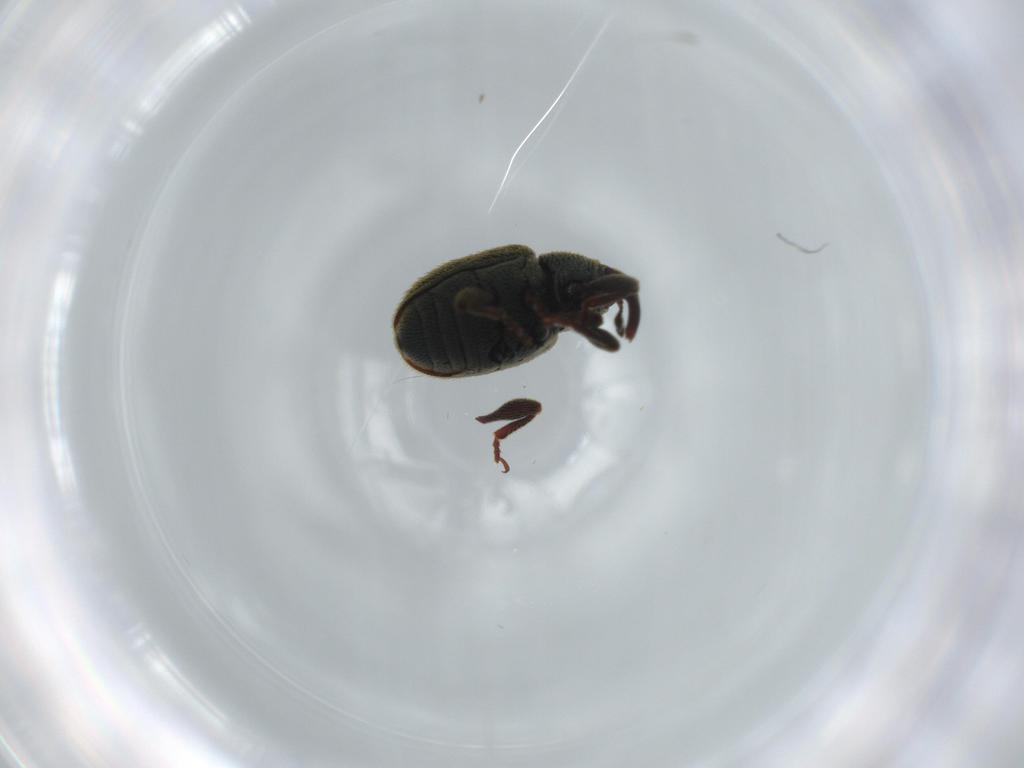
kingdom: Animalia
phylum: Arthropoda
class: Insecta
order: Coleoptera
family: Curculionidae
